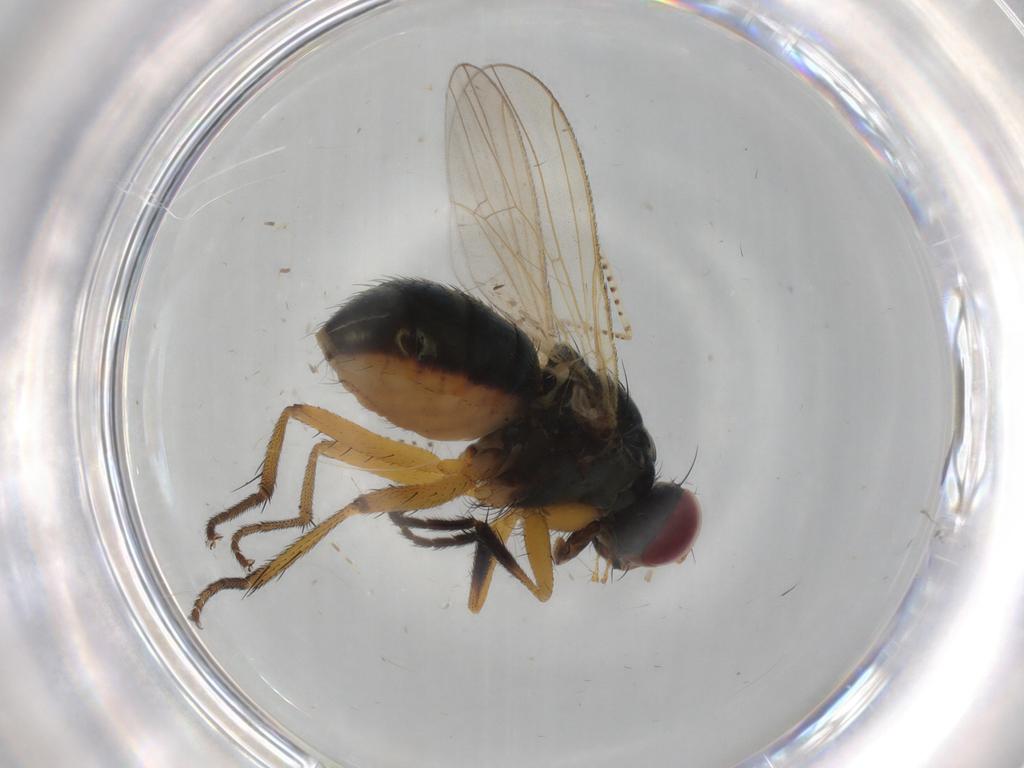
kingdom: Animalia
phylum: Arthropoda
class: Insecta
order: Diptera
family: Muscidae
